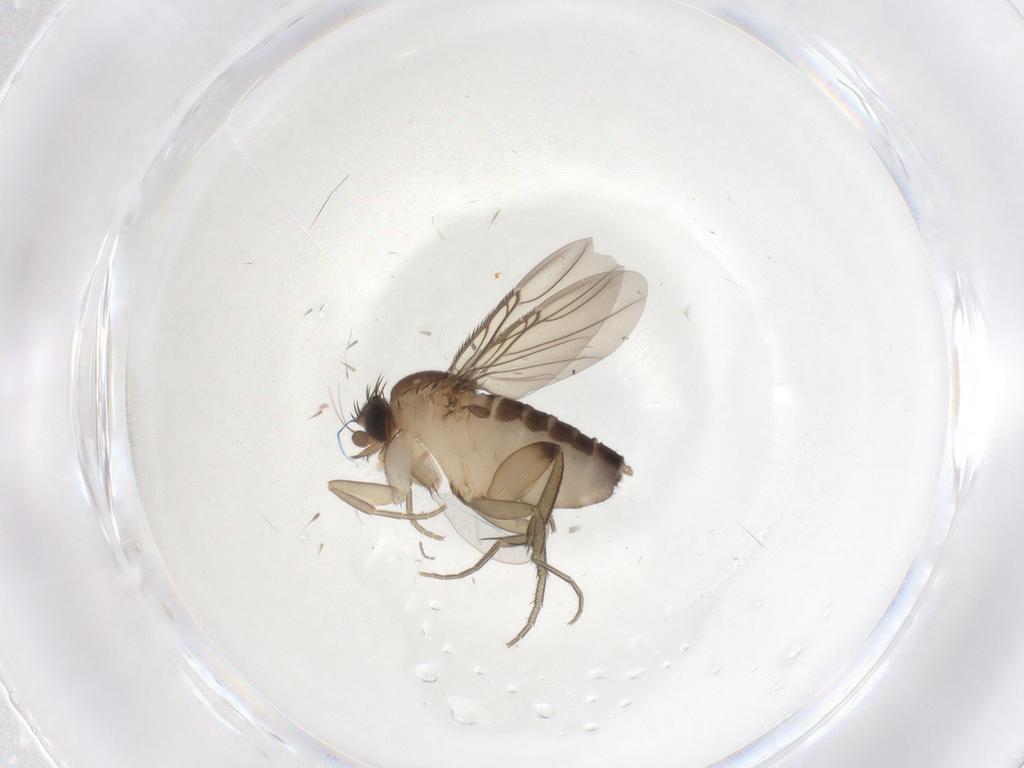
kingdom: Animalia
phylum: Arthropoda
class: Insecta
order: Diptera
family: Phoridae
